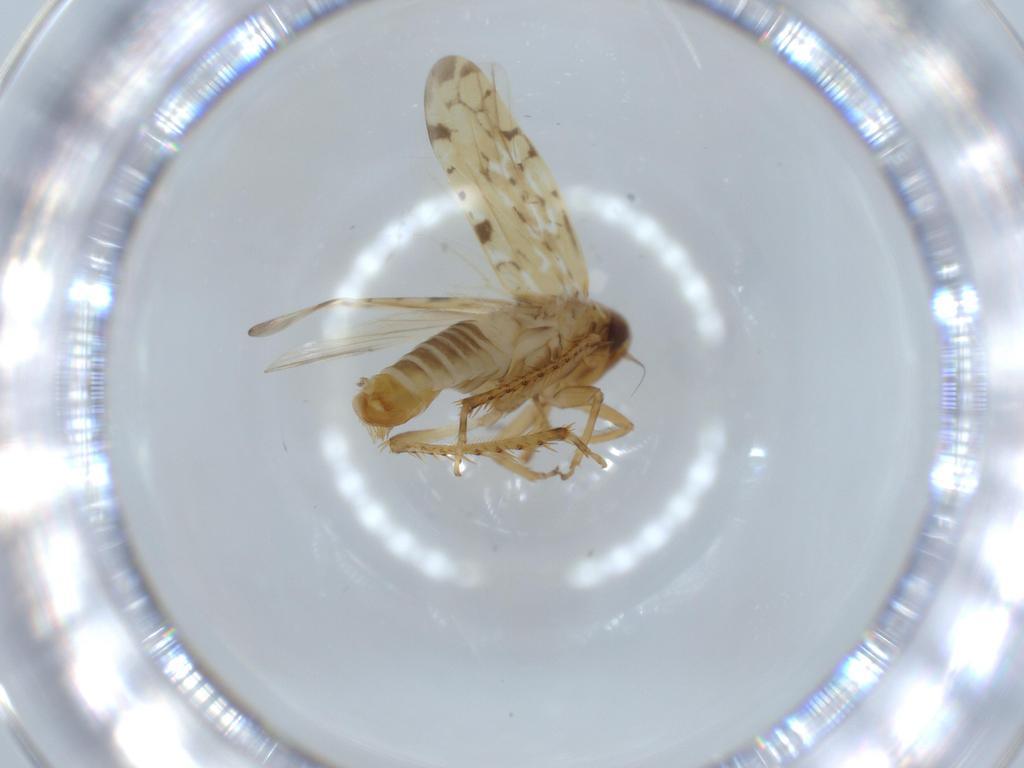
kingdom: Animalia
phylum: Arthropoda
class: Insecta
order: Hemiptera
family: Cicadellidae
